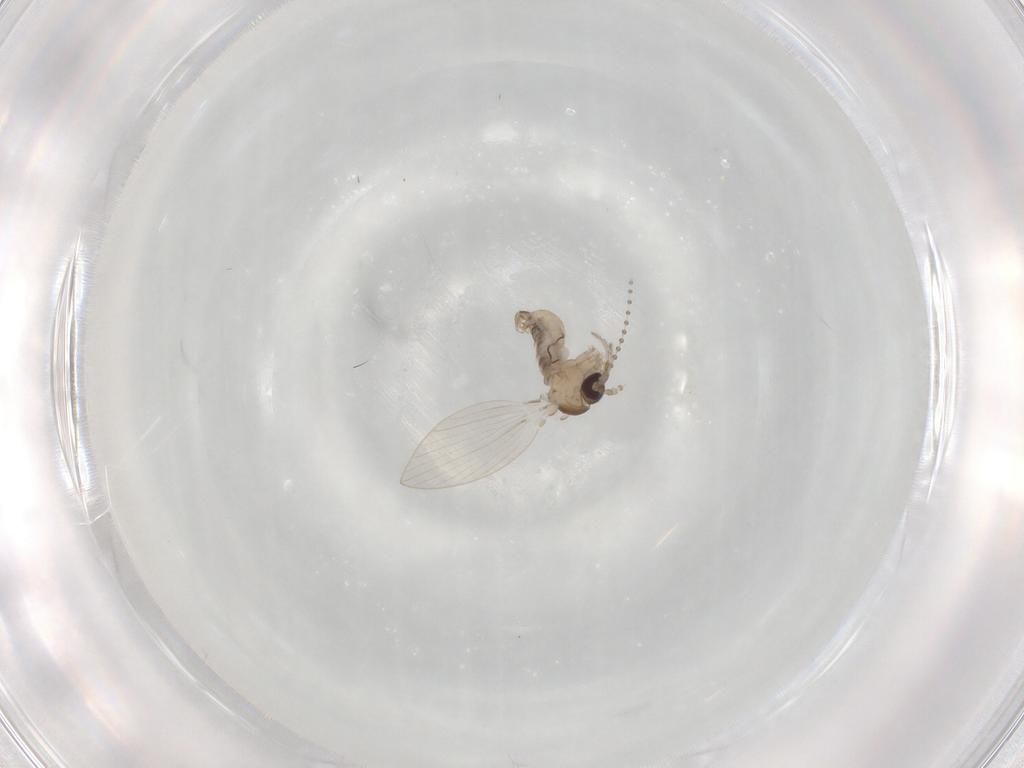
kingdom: Animalia
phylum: Arthropoda
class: Insecta
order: Diptera
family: Psychodidae
